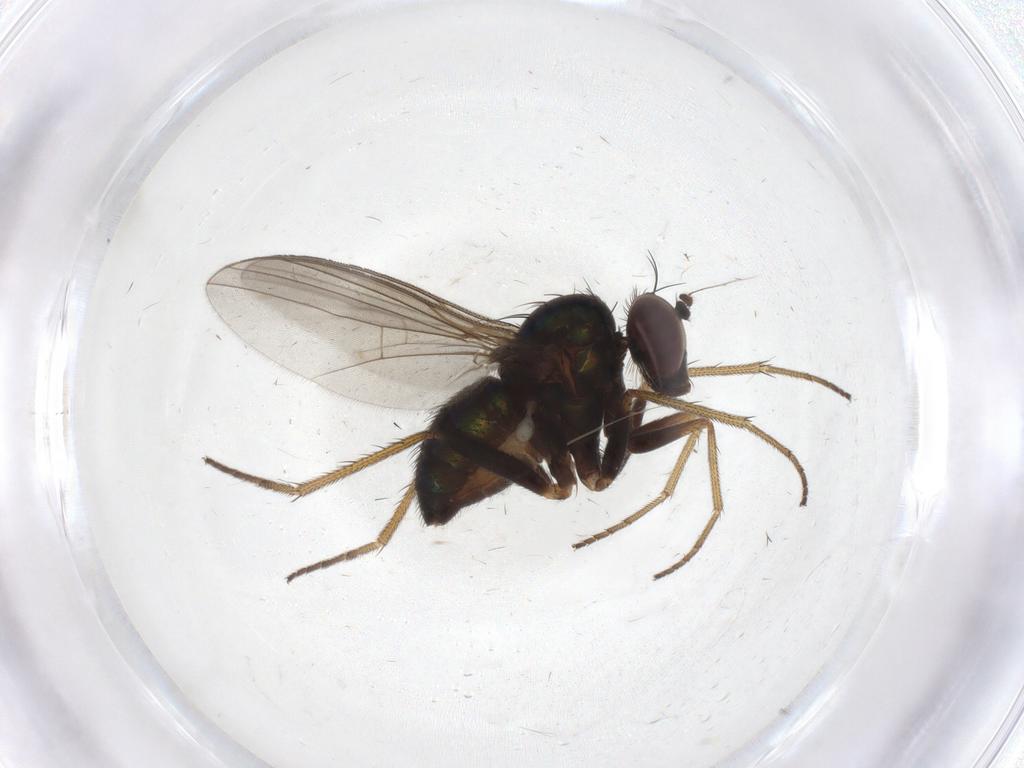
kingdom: Animalia
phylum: Arthropoda
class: Insecta
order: Diptera
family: Dolichopodidae
